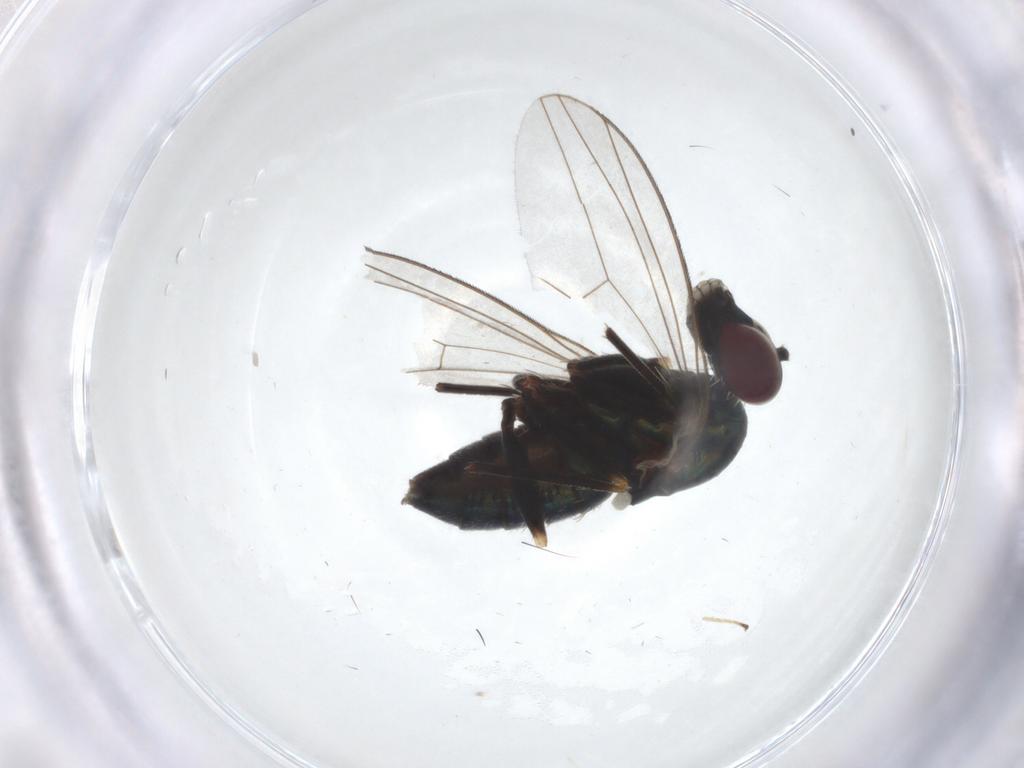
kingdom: Animalia
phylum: Arthropoda
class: Insecta
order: Diptera
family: Dolichopodidae
